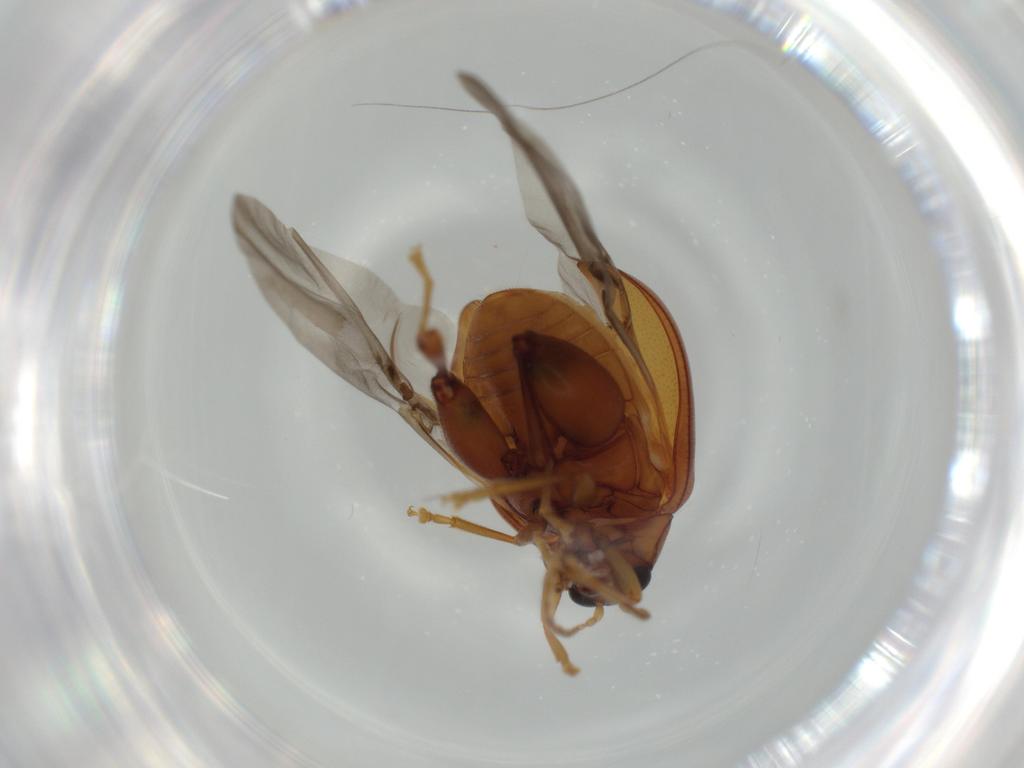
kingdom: Animalia
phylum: Arthropoda
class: Insecta
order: Coleoptera
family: Chrysomelidae
